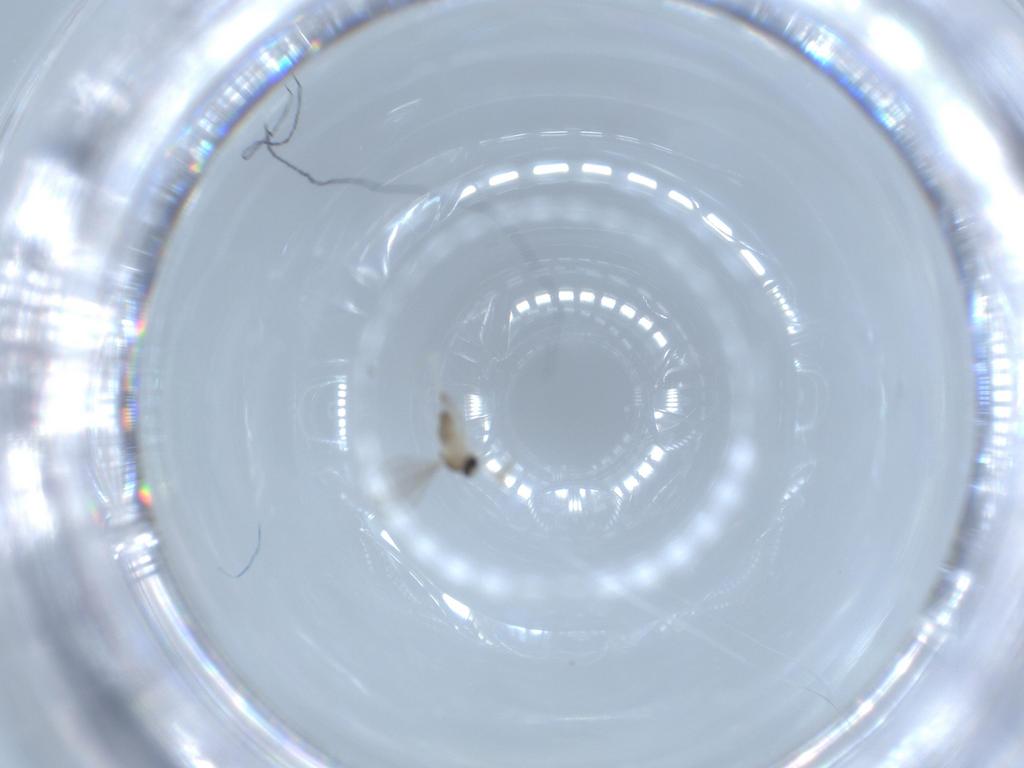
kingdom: Animalia
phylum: Arthropoda
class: Insecta
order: Diptera
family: Cecidomyiidae
